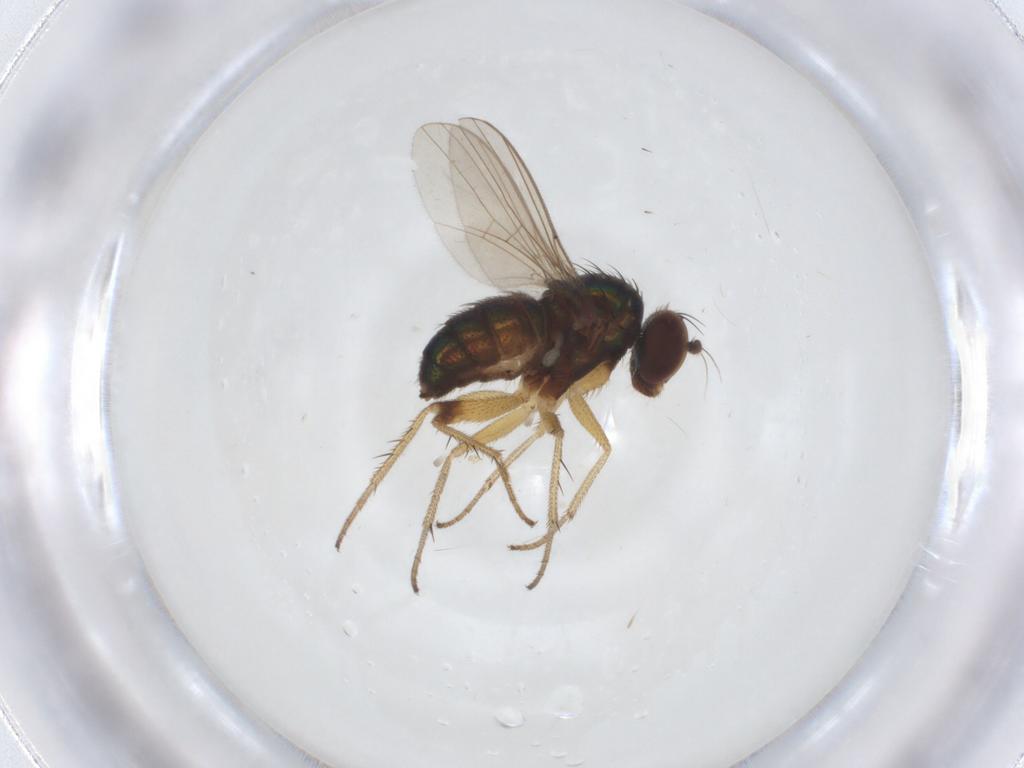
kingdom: Animalia
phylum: Arthropoda
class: Insecta
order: Diptera
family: Dolichopodidae
